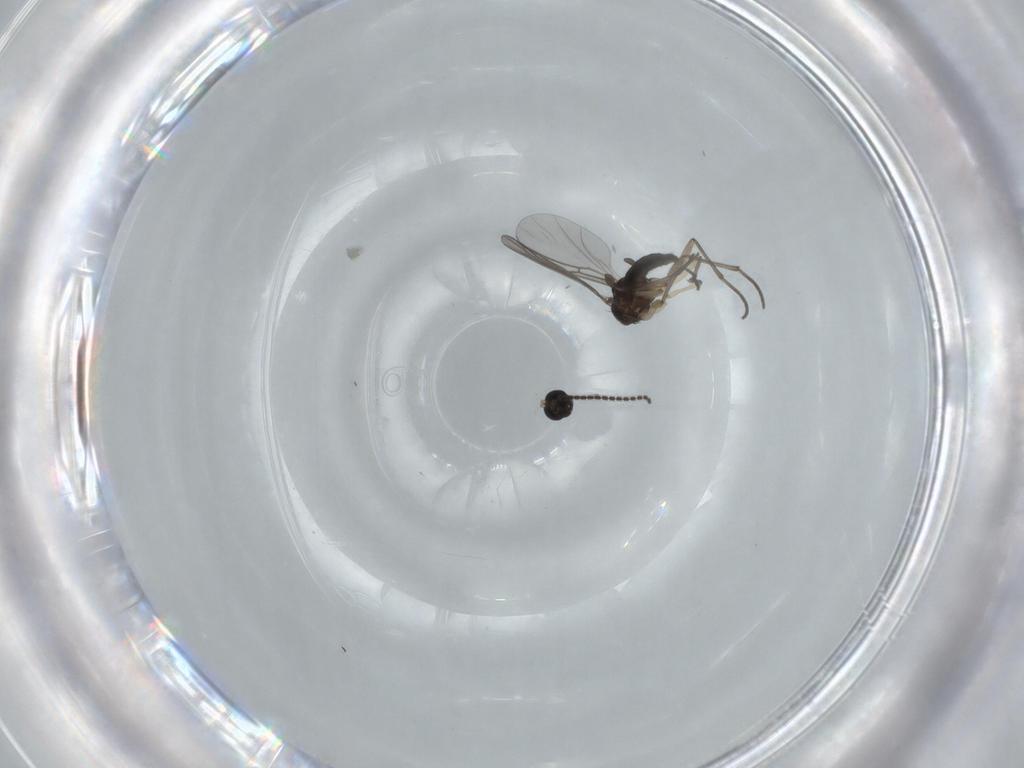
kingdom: Animalia
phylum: Arthropoda
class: Insecta
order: Diptera
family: Sciaridae
